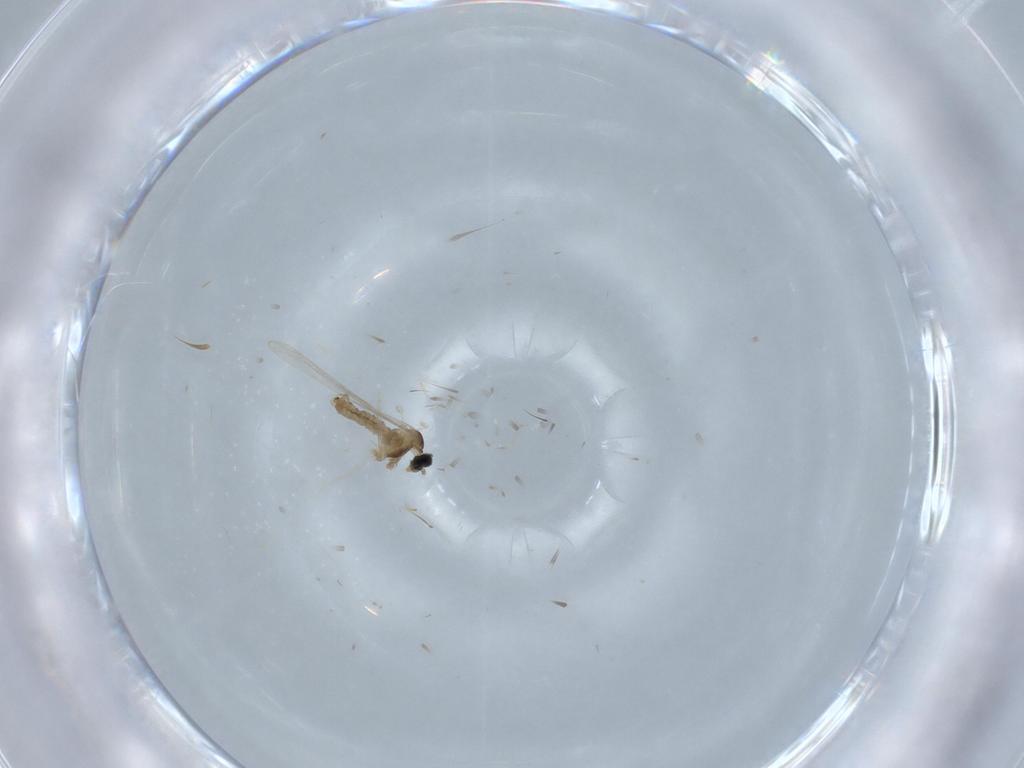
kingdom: Animalia
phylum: Arthropoda
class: Insecta
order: Diptera
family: Cecidomyiidae
